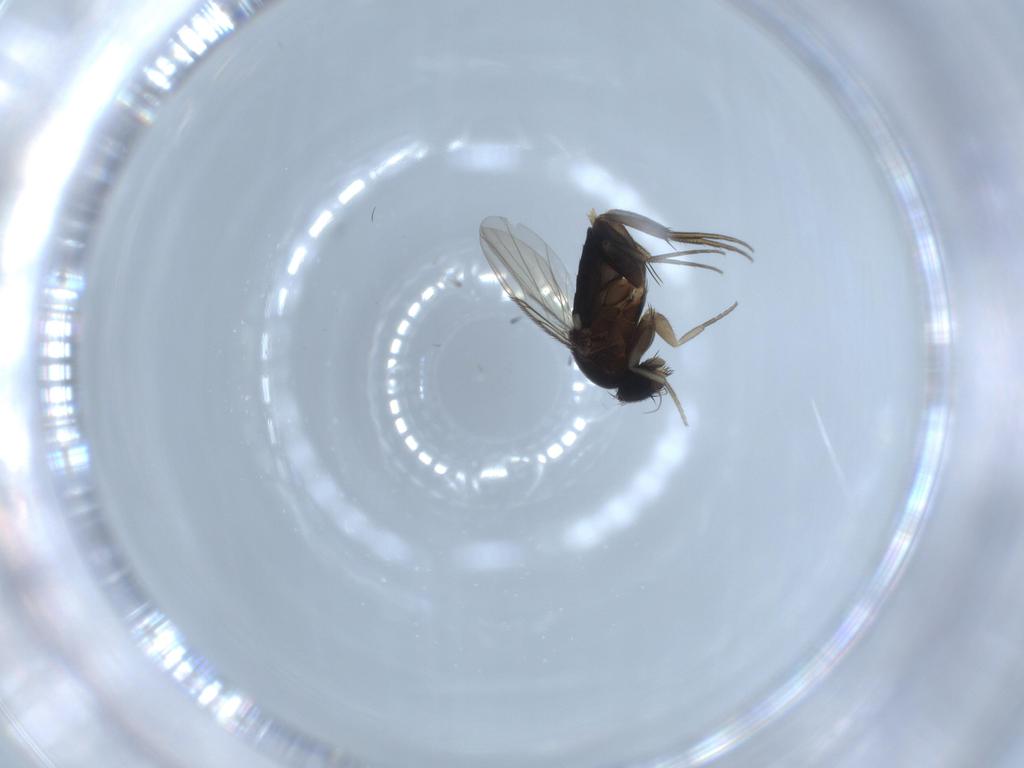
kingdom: Animalia
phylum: Arthropoda
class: Insecta
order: Diptera
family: Phoridae
